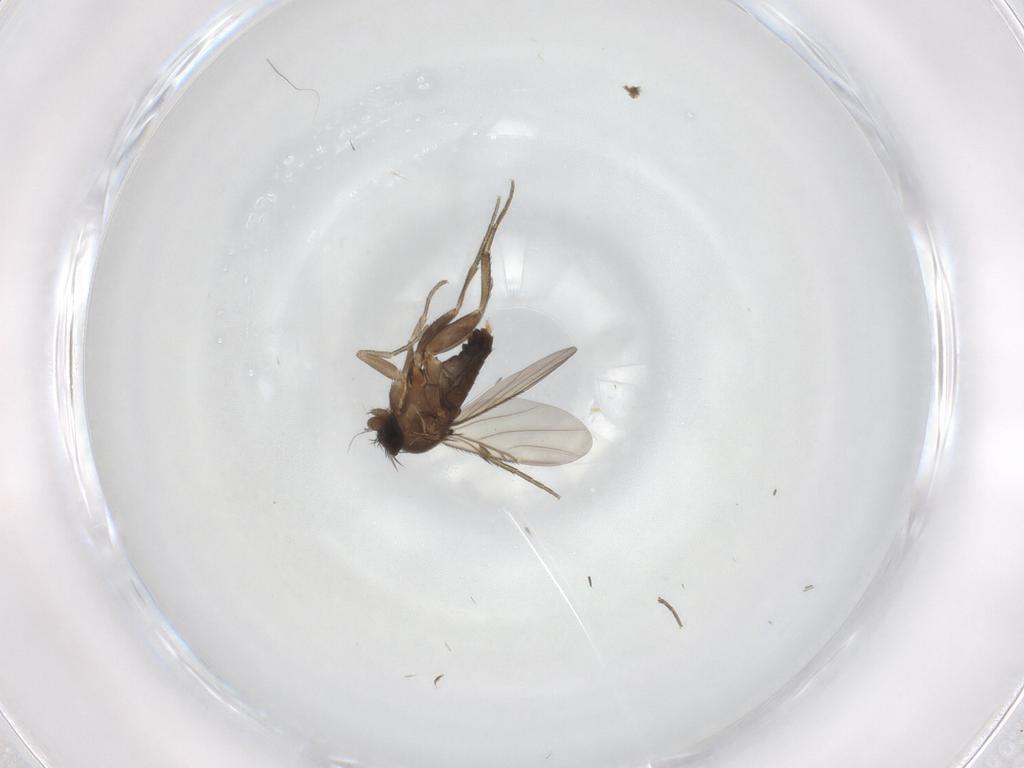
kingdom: Animalia
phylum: Arthropoda
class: Insecta
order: Diptera
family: Phoridae
